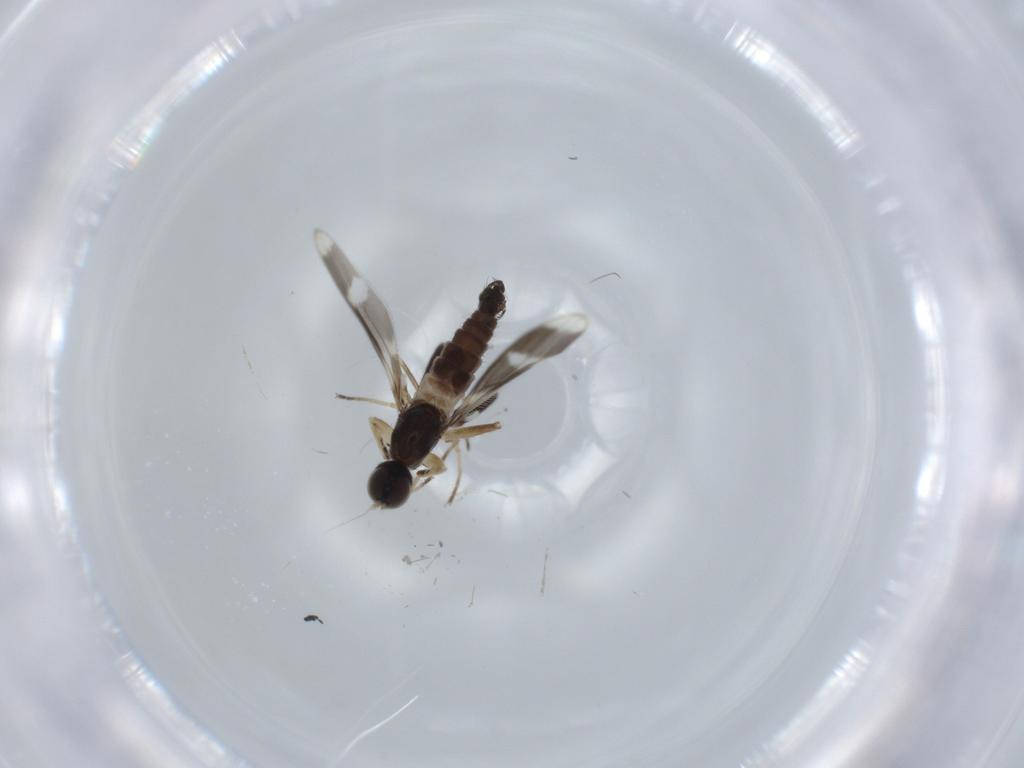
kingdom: Animalia
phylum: Arthropoda
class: Insecta
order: Diptera
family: Hybotidae
